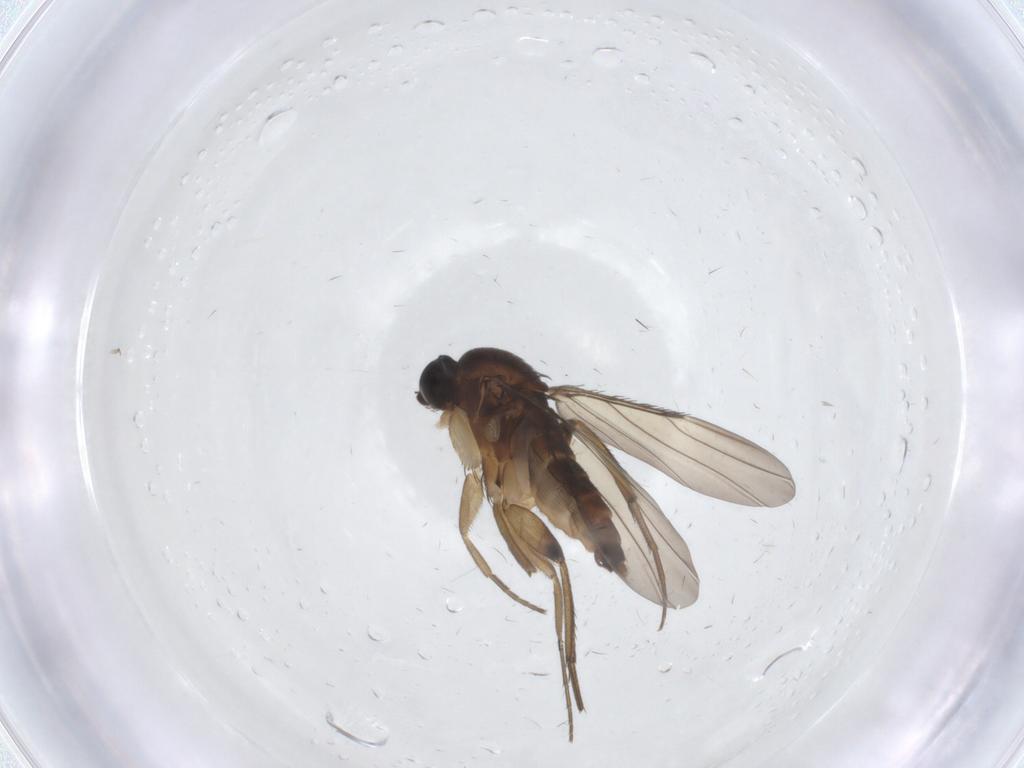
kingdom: Animalia
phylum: Arthropoda
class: Insecta
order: Diptera
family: Phoridae
